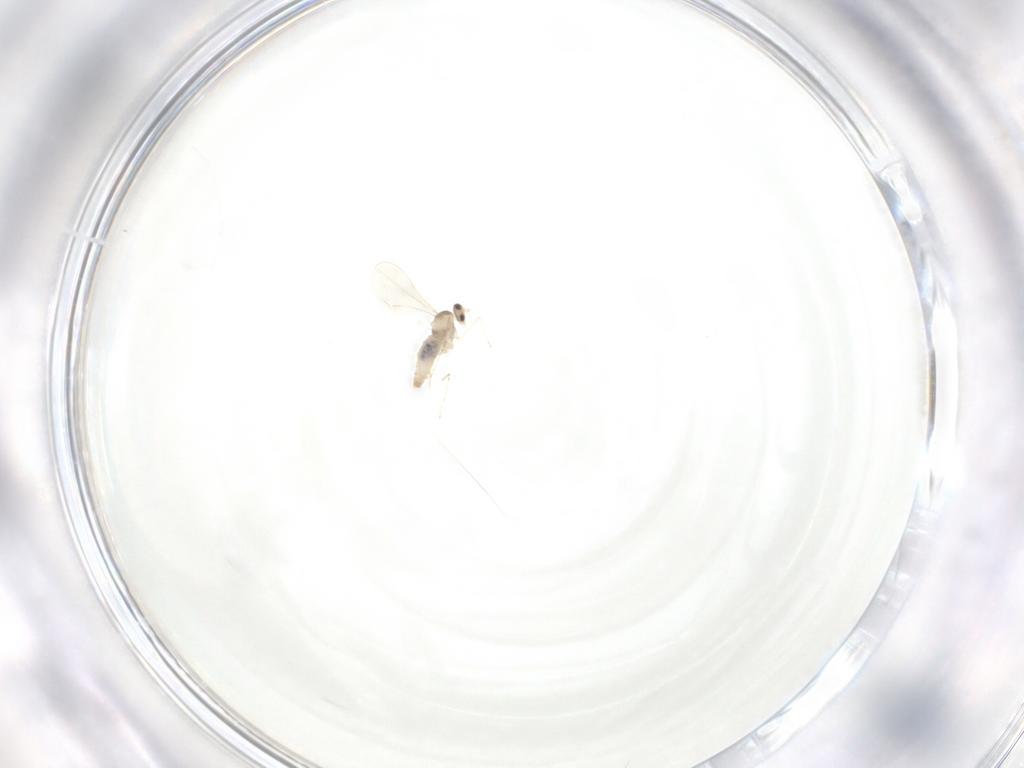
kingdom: Animalia
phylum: Arthropoda
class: Insecta
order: Diptera
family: Cecidomyiidae
